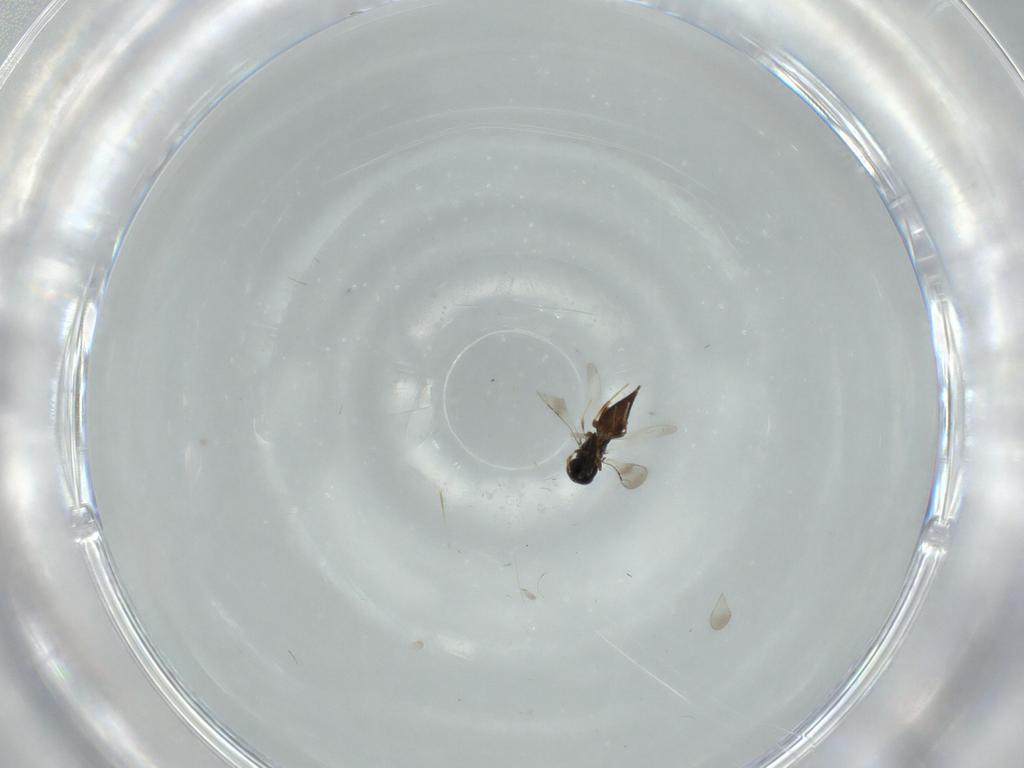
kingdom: Animalia
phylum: Arthropoda
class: Insecta
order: Hymenoptera
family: Ceraphronidae
